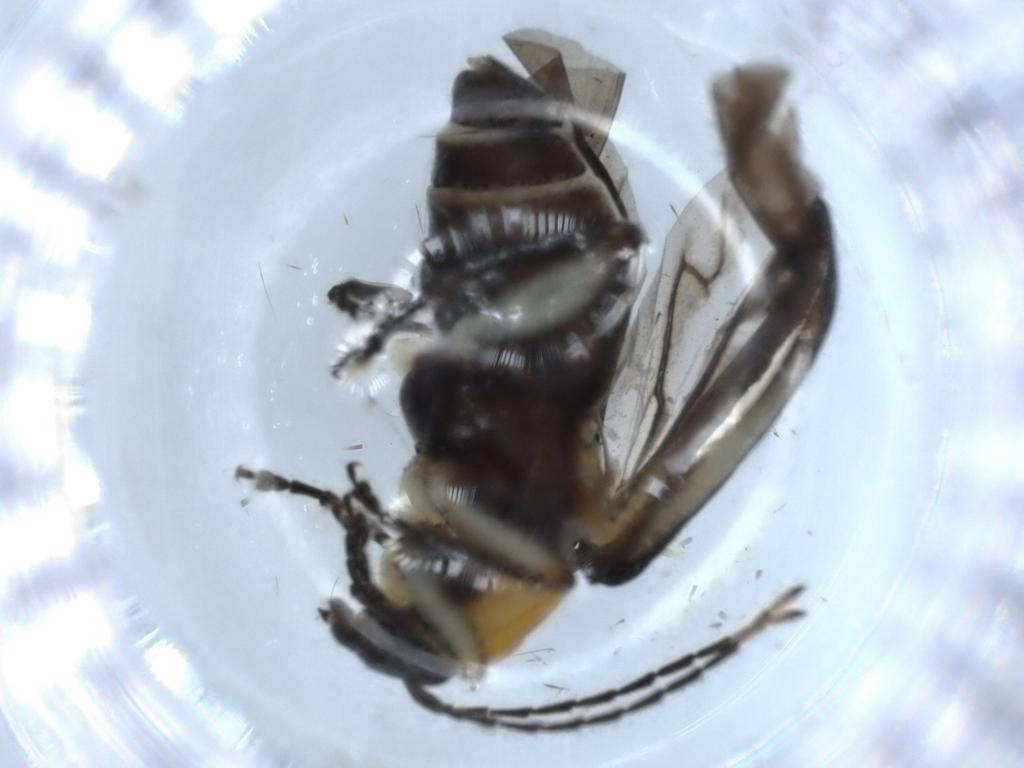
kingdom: Animalia
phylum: Arthropoda
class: Insecta
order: Coleoptera
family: Chrysomelidae
